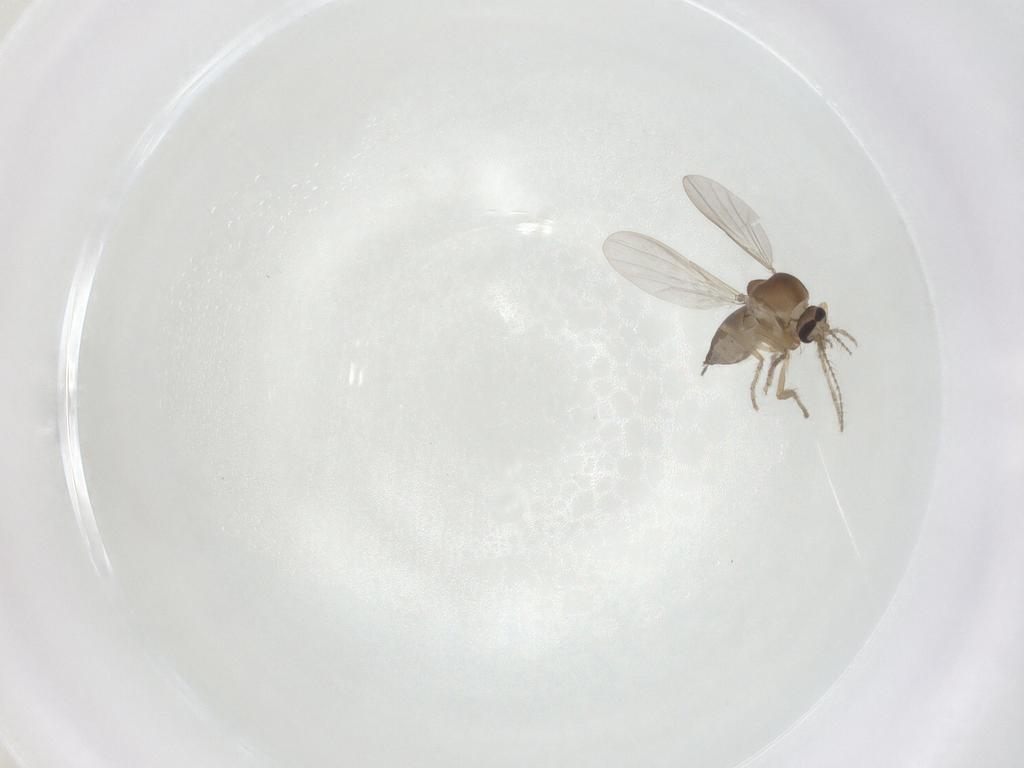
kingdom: Animalia
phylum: Arthropoda
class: Insecta
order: Diptera
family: Ceratopogonidae
